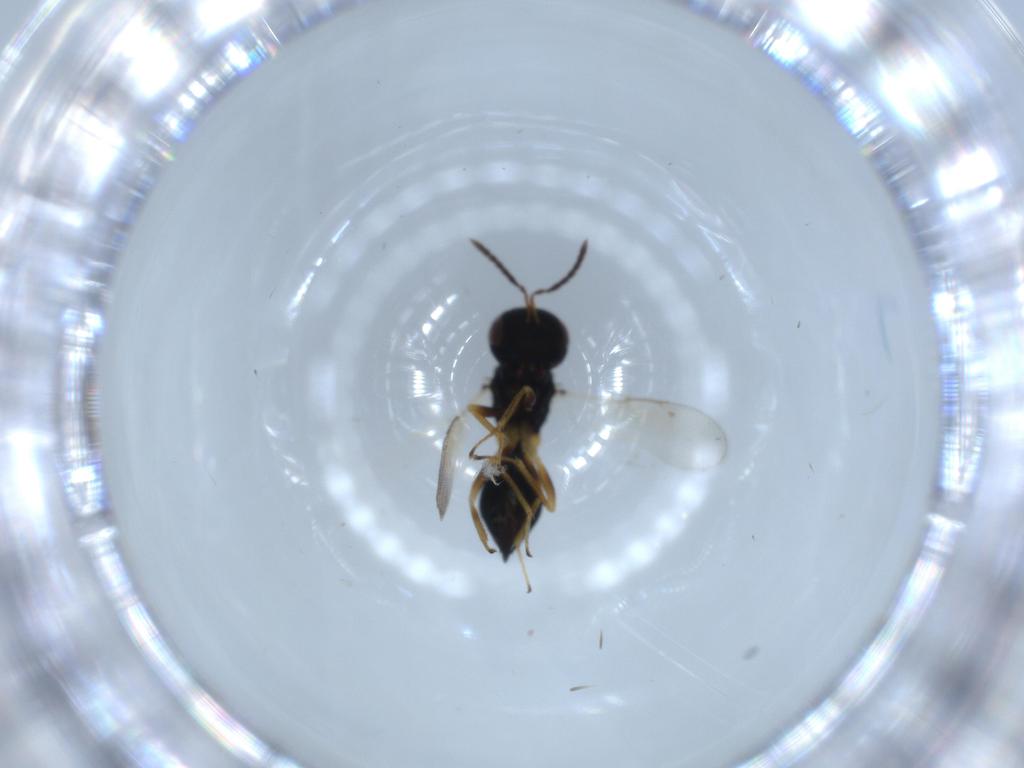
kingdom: Animalia
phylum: Arthropoda
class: Insecta
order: Hymenoptera
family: Pteromalidae
